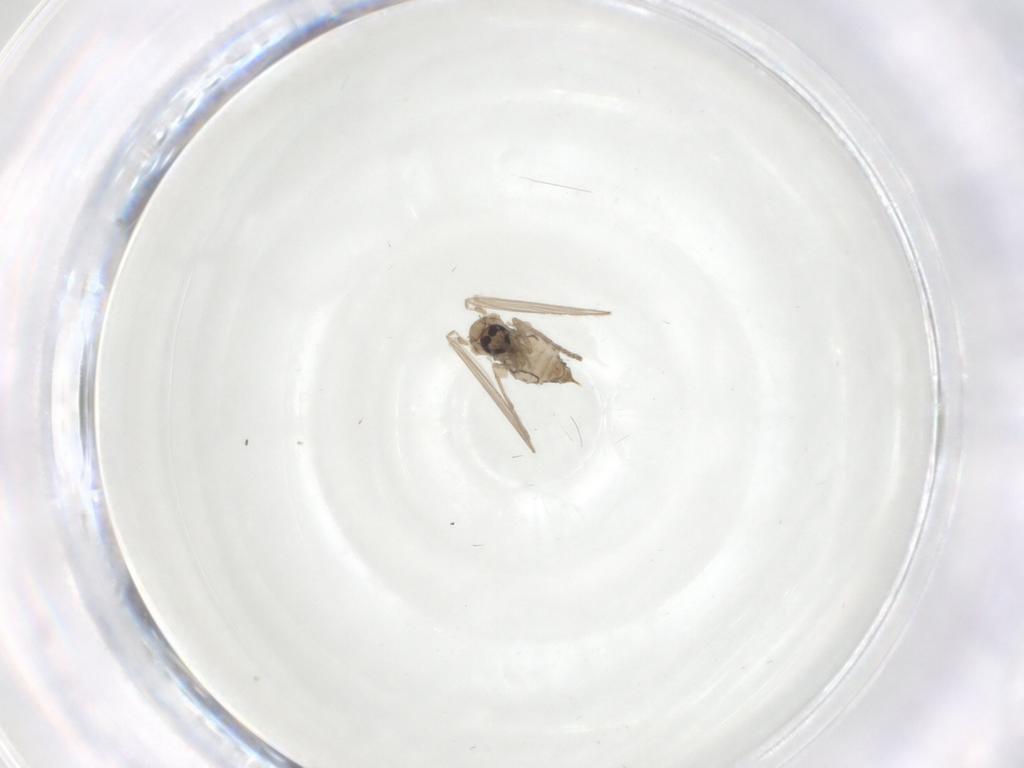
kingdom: Animalia
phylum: Arthropoda
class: Insecta
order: Diptera
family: Psychodidae
